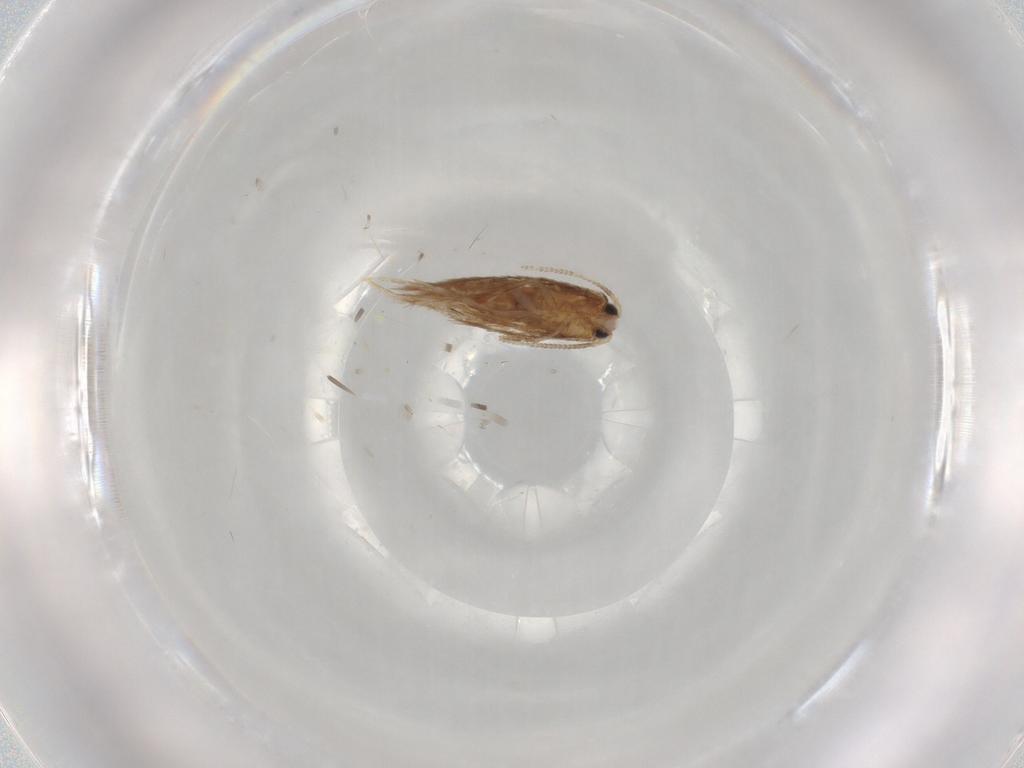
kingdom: Animalia
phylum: Arthropoda
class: Insecta
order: Lepidoptera
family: Nepticulidae
